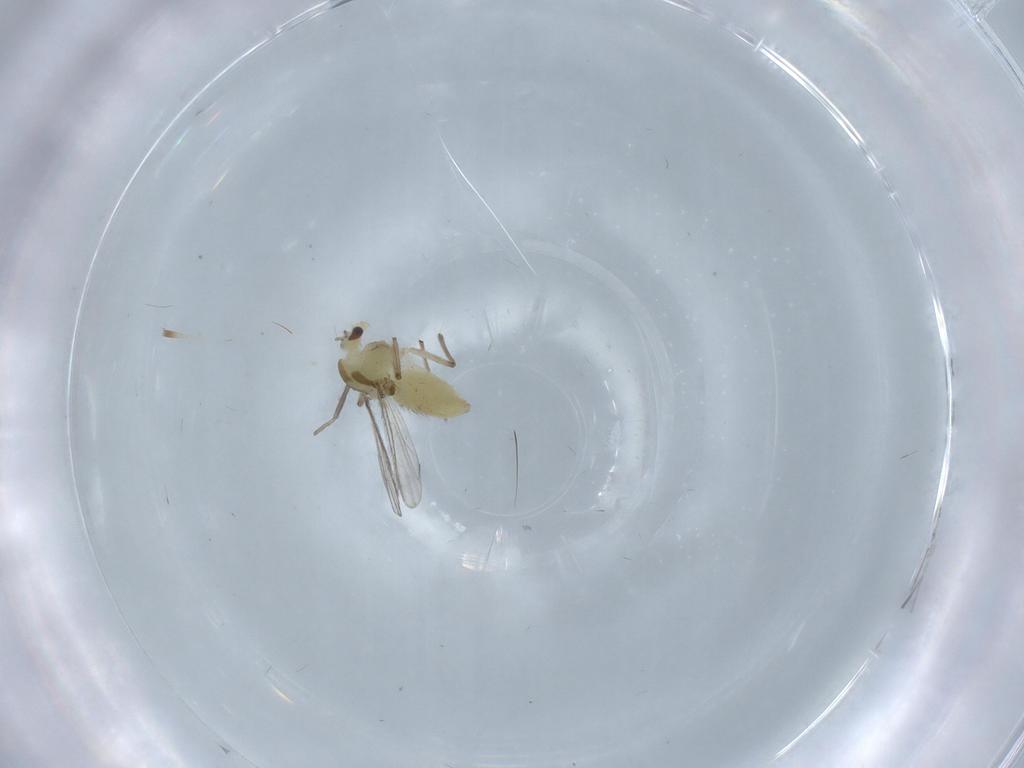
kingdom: Animalia
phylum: Arthropoda
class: Insecta
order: Diptera
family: Chironomidae
